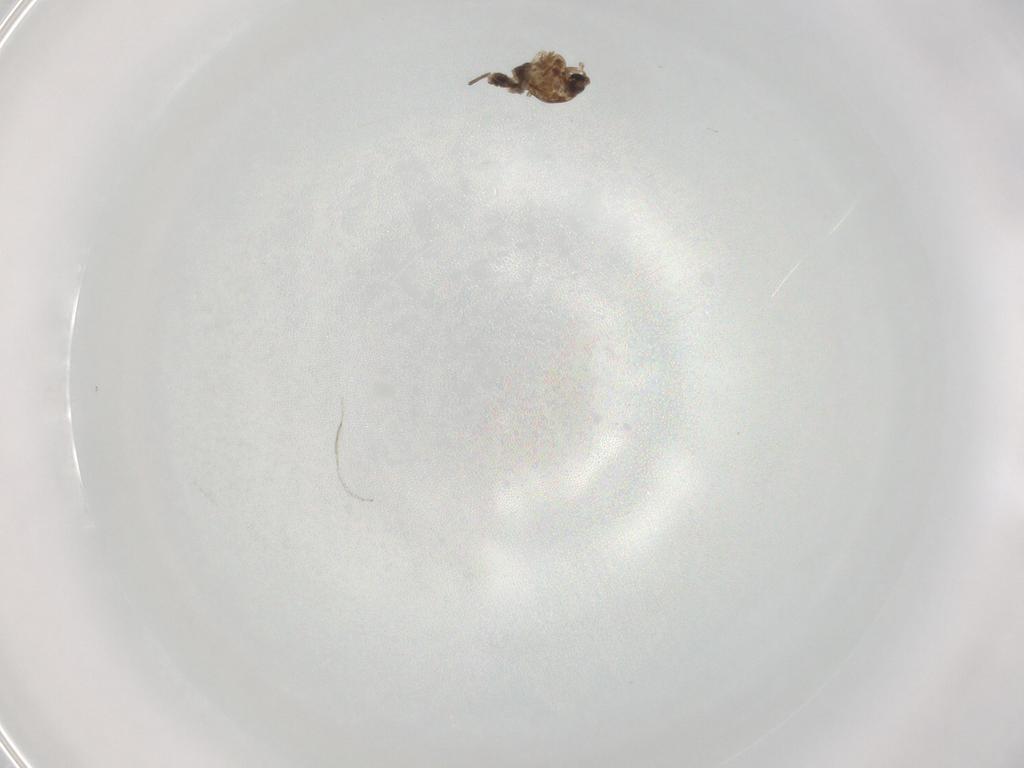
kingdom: Animalia
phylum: Arthropoda
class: Insecta
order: Diptera
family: Chironomidae
